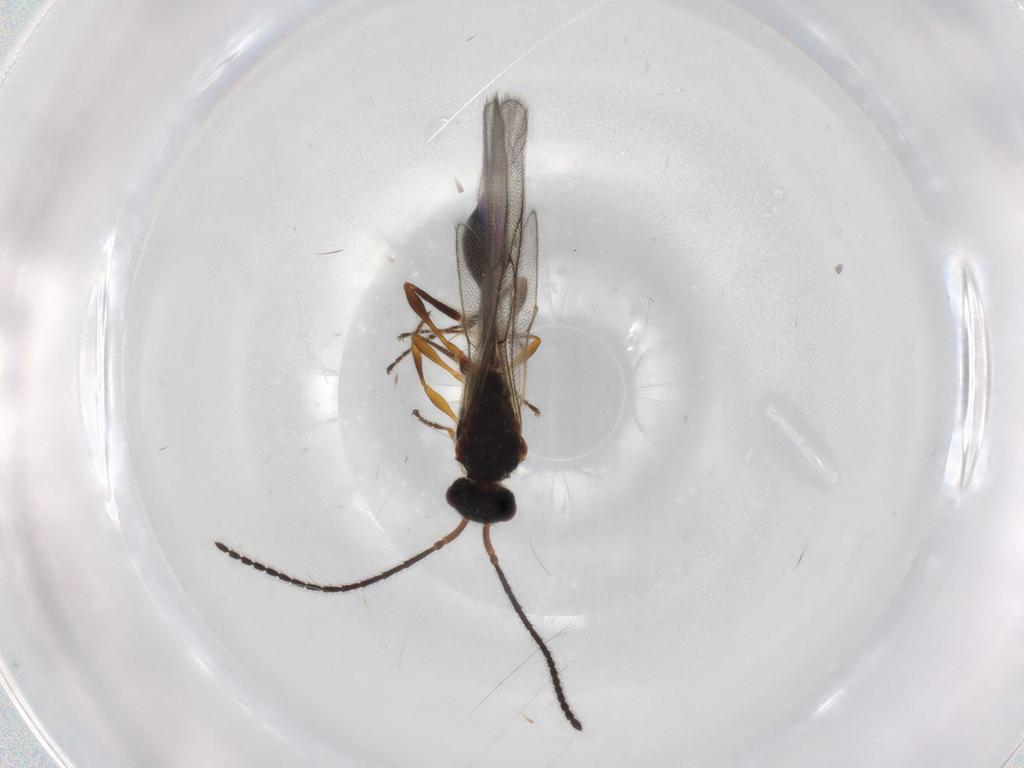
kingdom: Animalia
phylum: Arthropoda
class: Insecta
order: Hymenoptera
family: Diapriidae
